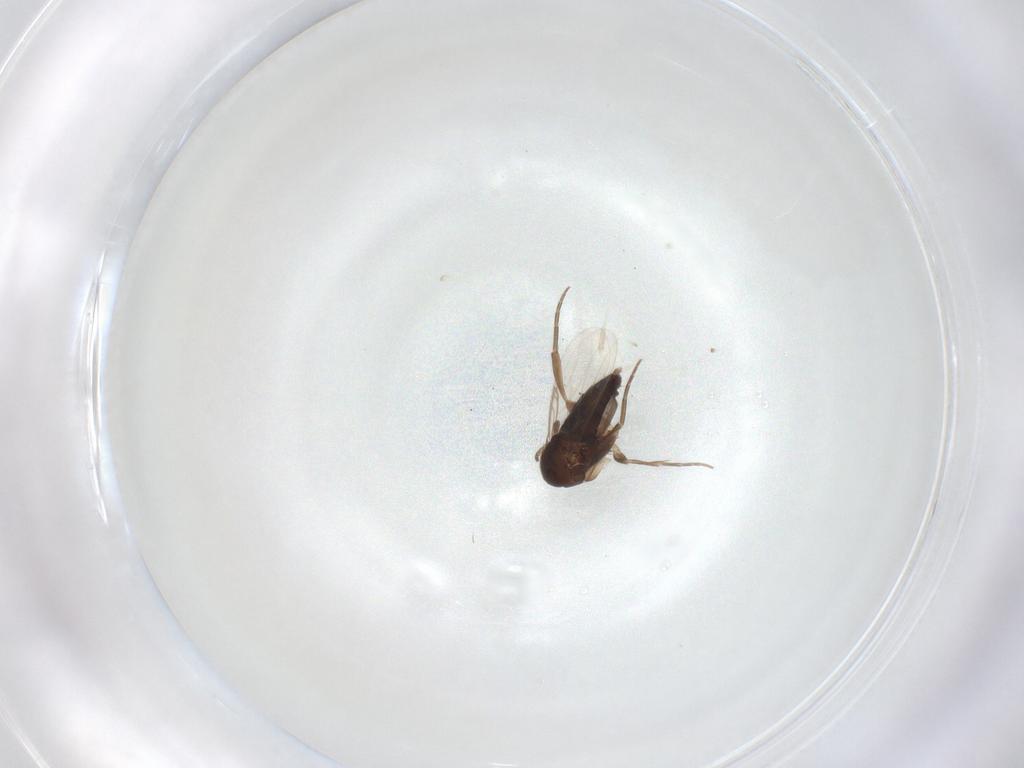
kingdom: Animalia
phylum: Arthropoda
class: Insecta
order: Diptera
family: Phoridae
